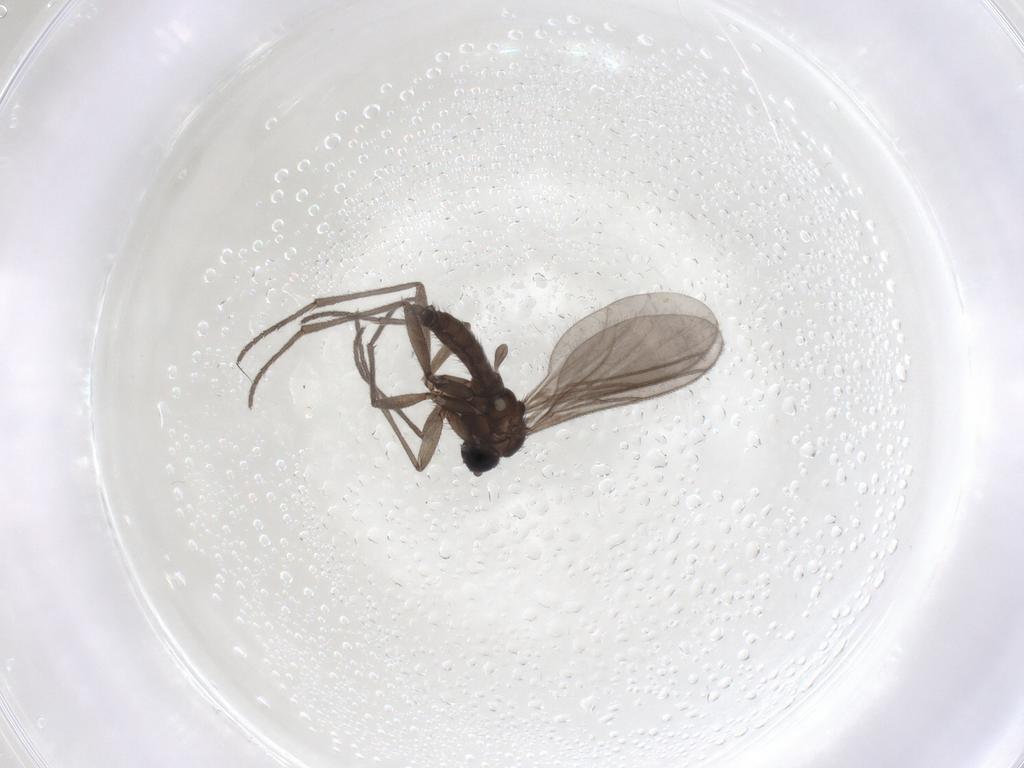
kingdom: Animalia
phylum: Arthropoda
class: Insecta
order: Diptera
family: Sciaridae
